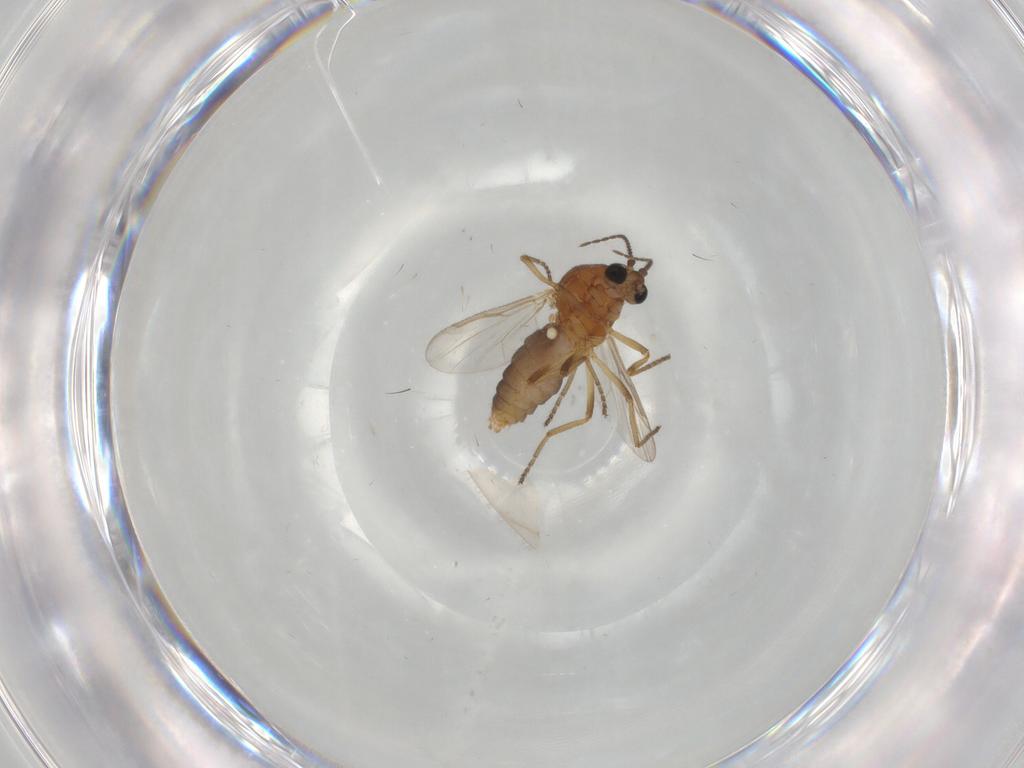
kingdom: Animalia
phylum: Arthropoda
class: Insecta
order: Diptera
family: Ceratopogonidae
